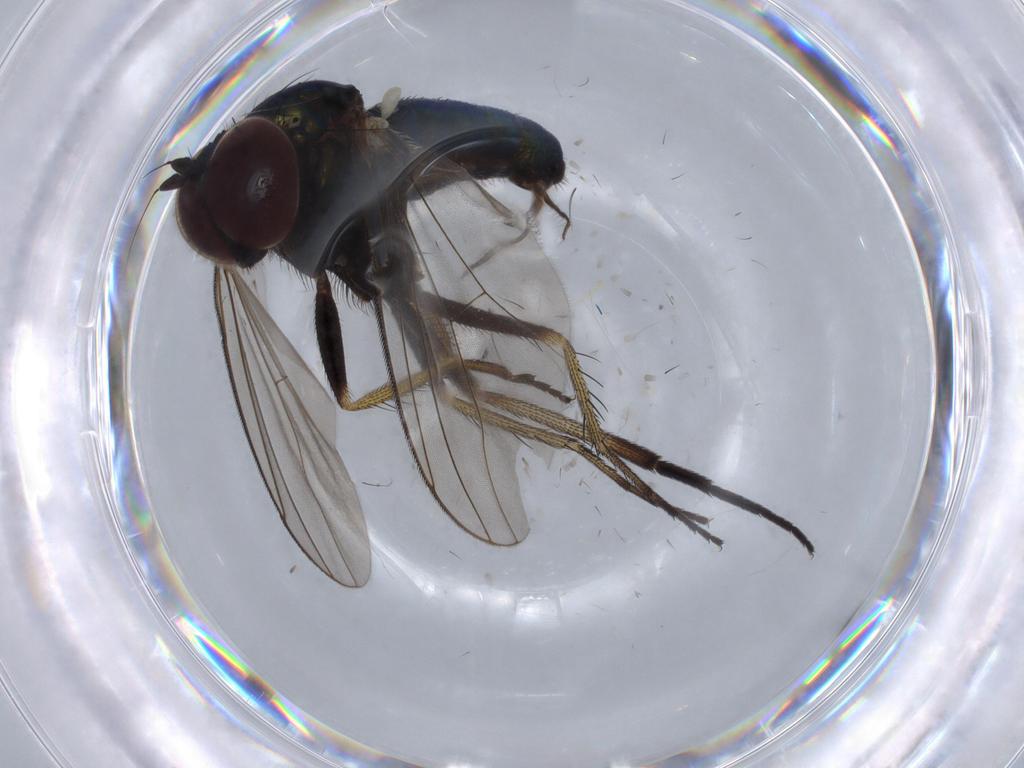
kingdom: Animalia
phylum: Arthropoda
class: Insecta
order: Diptera
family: Dolichopodidae
